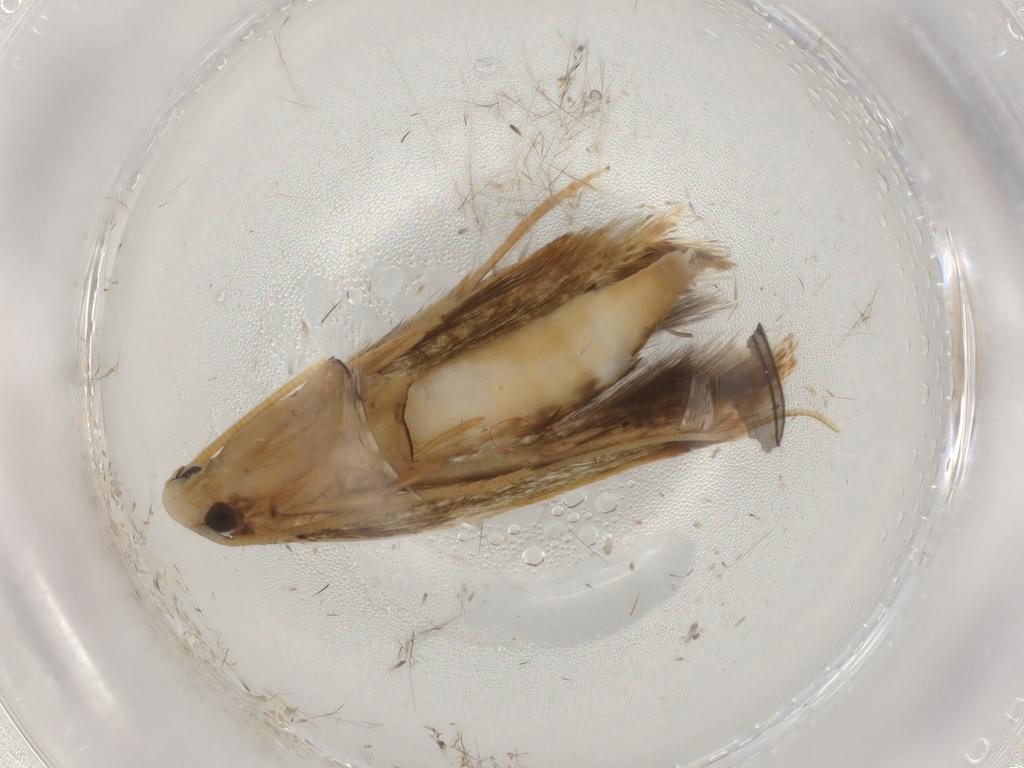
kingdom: Animalia
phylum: Arthropoda
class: Insecta
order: Lepidoptera
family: Tineidae
